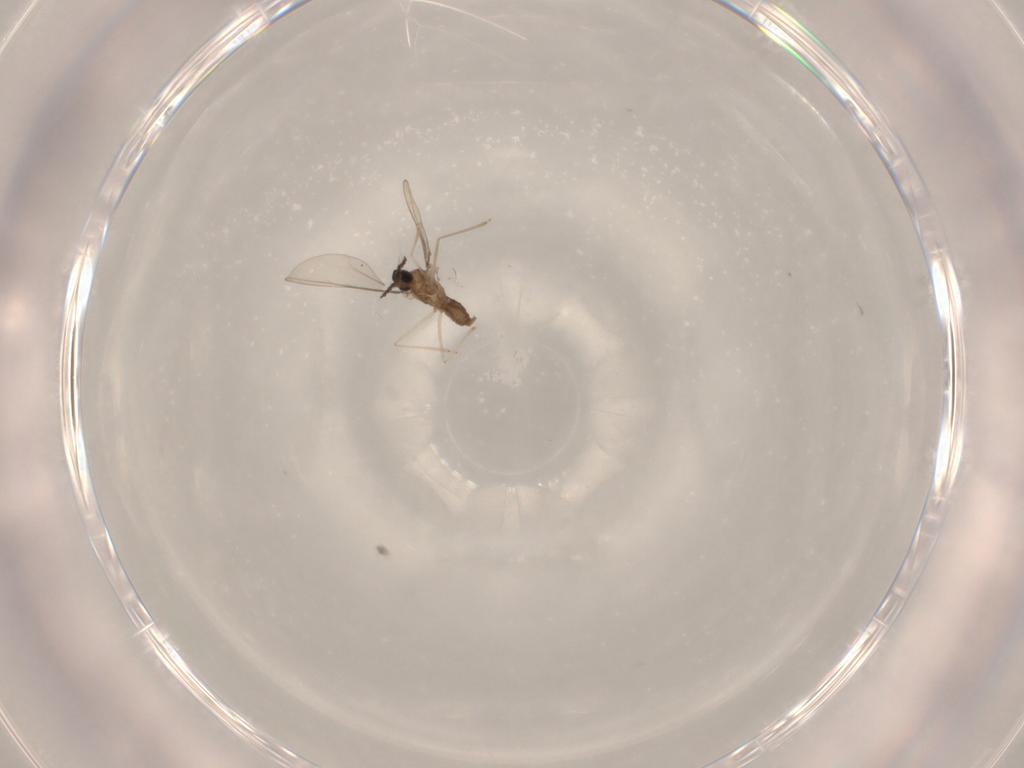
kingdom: Animalia
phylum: Arthropoda
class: Insecta
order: Diptera
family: Cecidomyiidae
